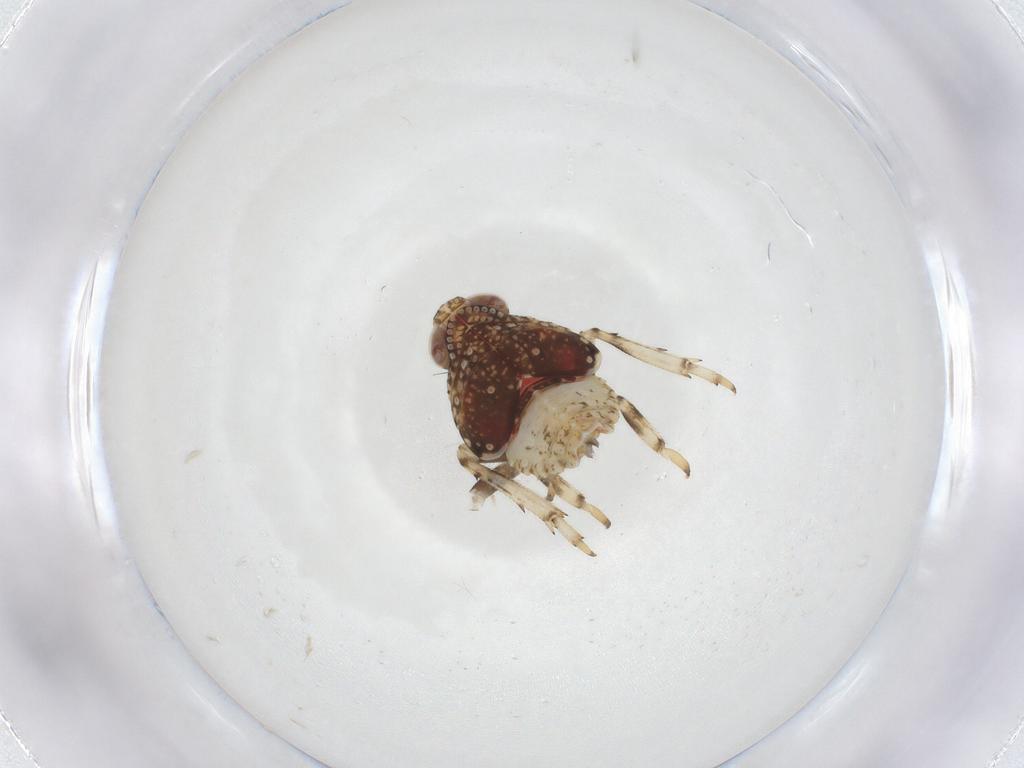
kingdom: Animalia
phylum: Arthropoda
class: Insecta
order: Hemiptera
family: Issidae
